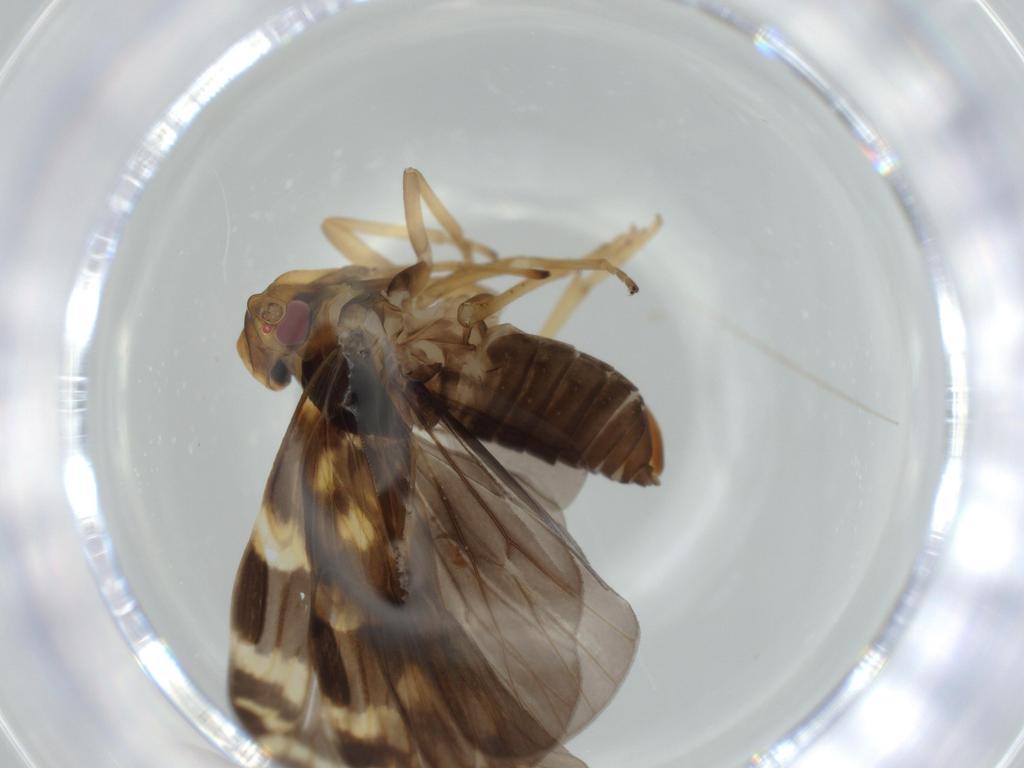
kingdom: Animalia
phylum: Arthropoda
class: Insecta
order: Hemiptera
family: Cixiidae
